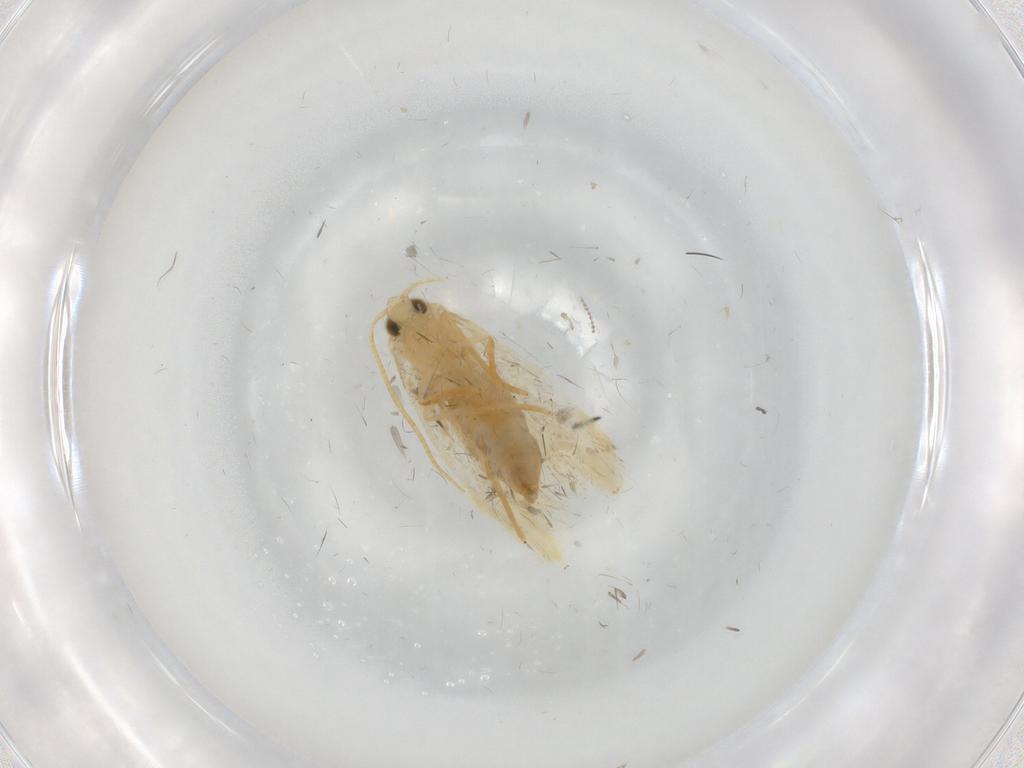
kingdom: Animalia
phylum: Arthropoda
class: Insecta
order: Lepidoptera
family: Tineidae
